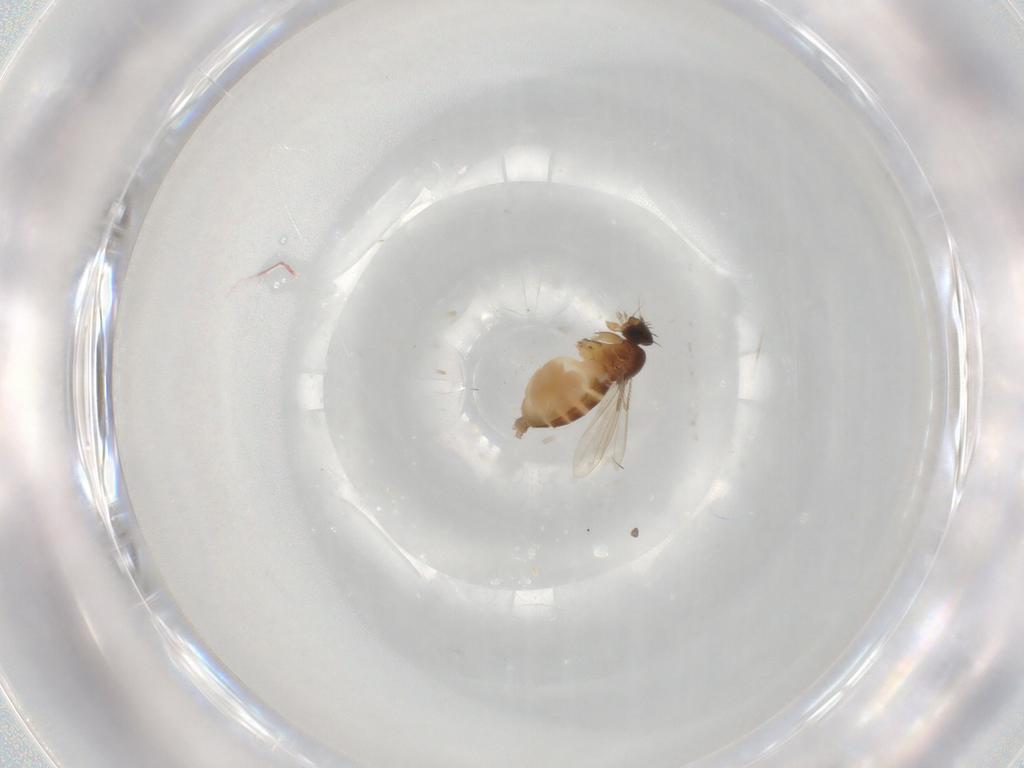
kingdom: Animalia
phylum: Arthropoda
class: Insecta
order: Diptera
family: Phoridae
